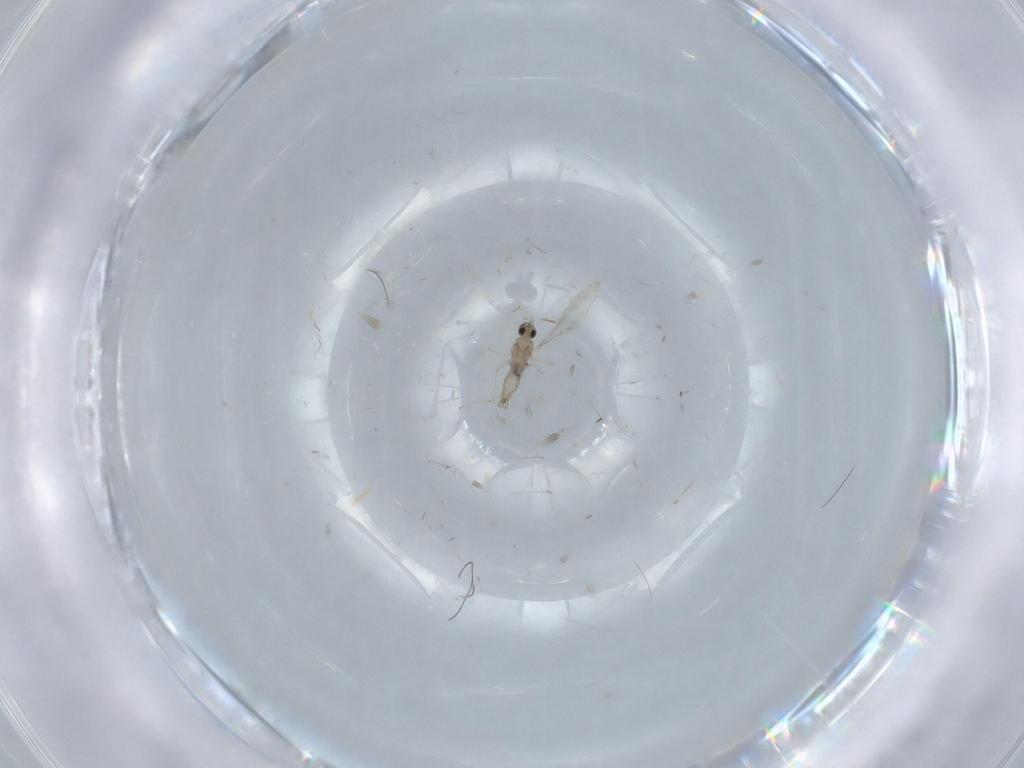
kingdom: Animalia
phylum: Arthropoda
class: Insecta
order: Diptera
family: Cecidomyiidae
